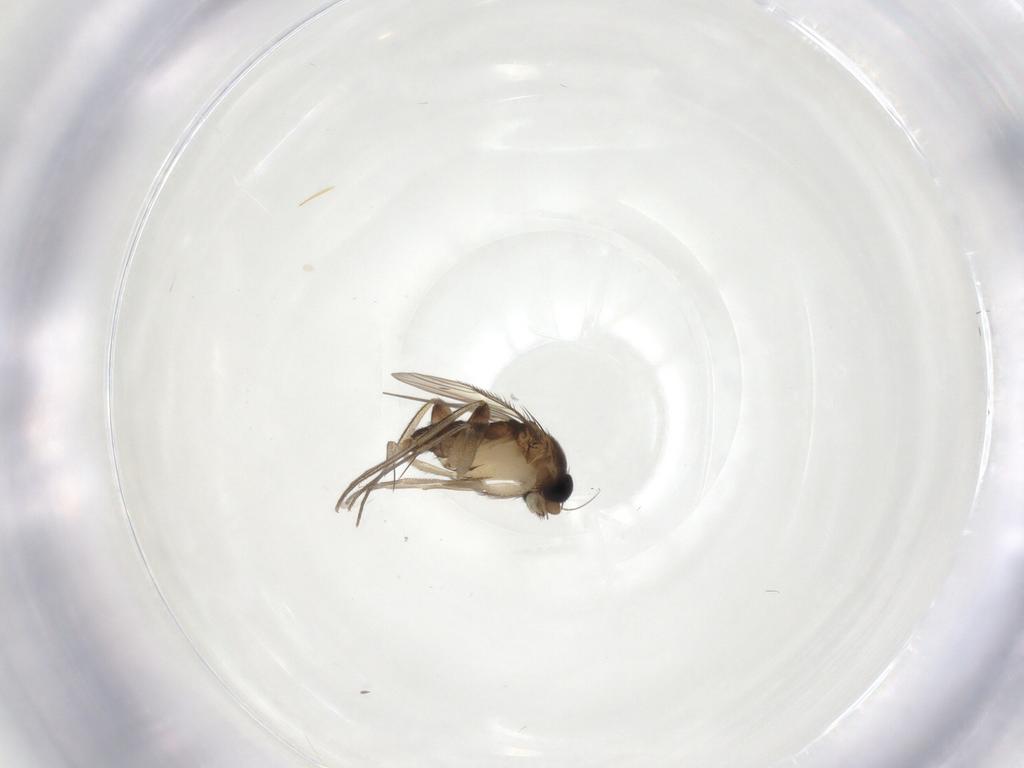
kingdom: Animalia
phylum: Arthropoda
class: Insecta
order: Diptera
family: Phoridae
